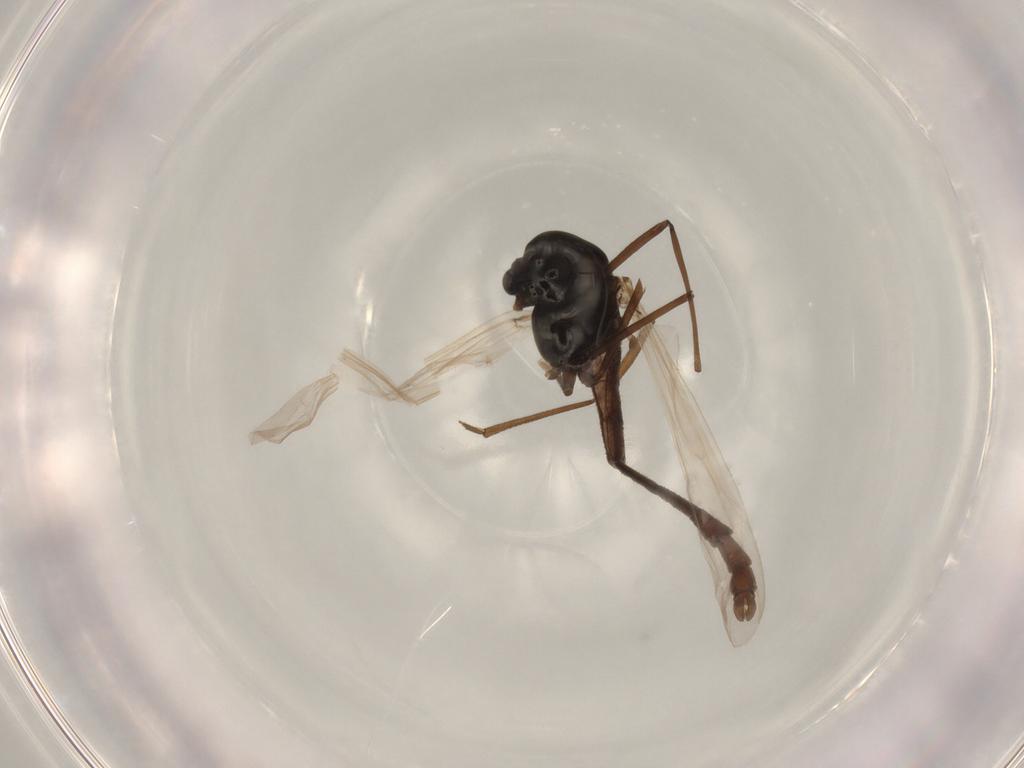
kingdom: Animalia
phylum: Arthropoda
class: Insecta
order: Diptera
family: Chironomidae
